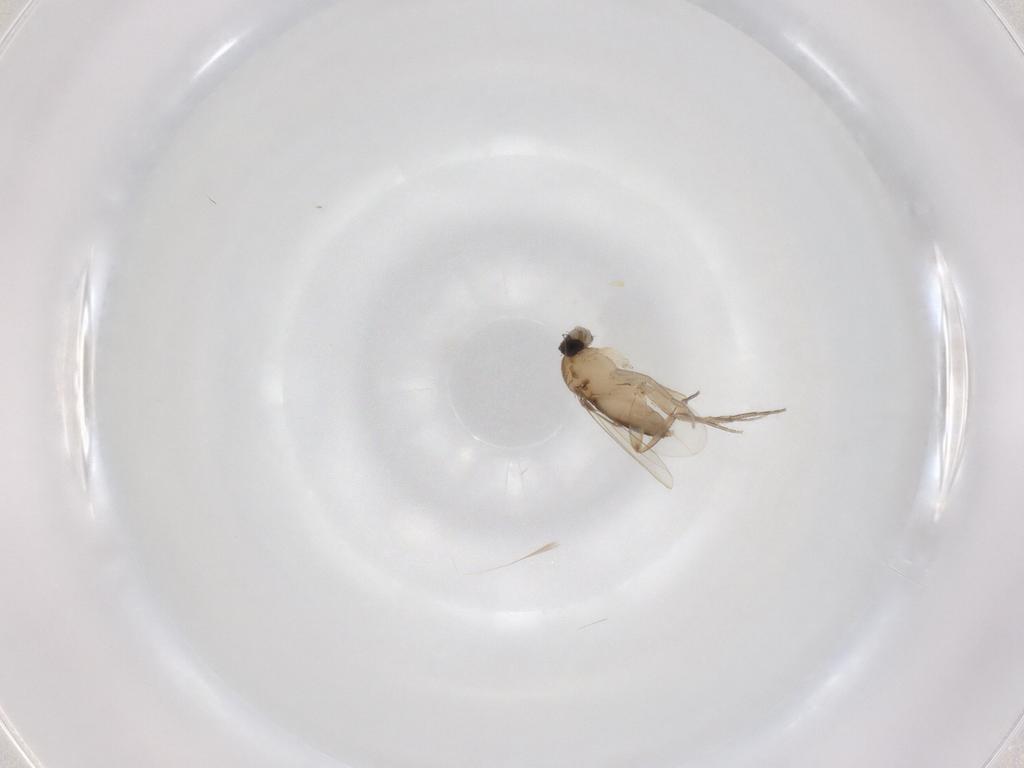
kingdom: Animalia
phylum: Arthropoda
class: Insecta
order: Diptera
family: Phoridae
